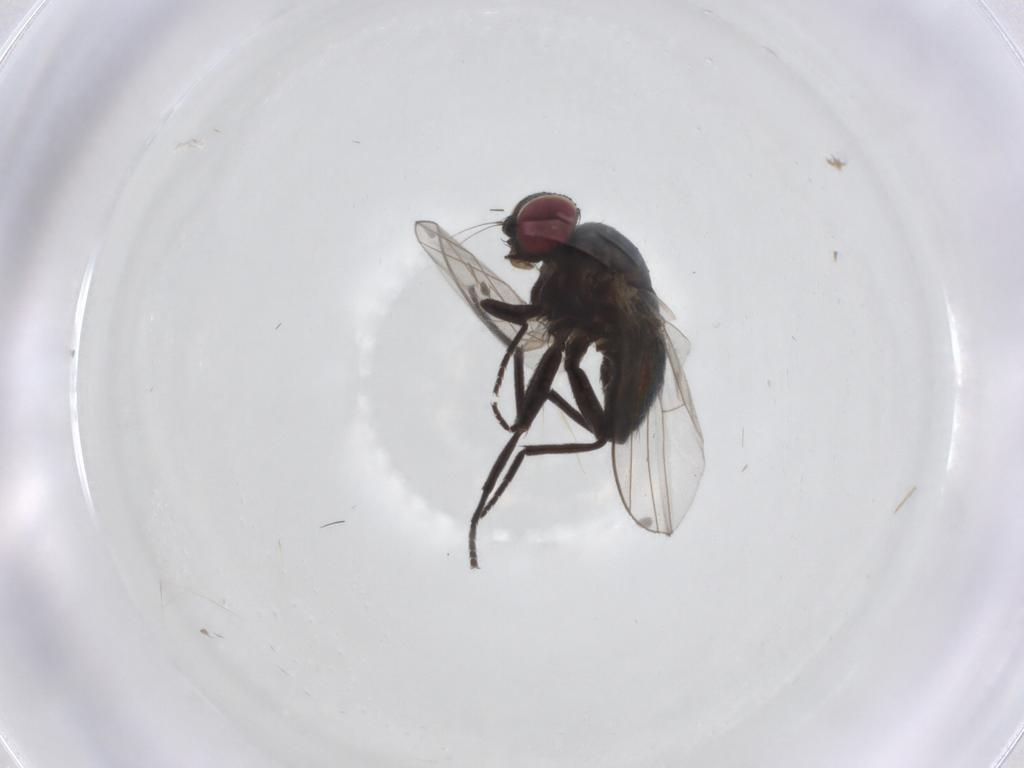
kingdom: Animalia
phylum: Arthropoda
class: Insecta
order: Diptera
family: Agromyzidae
